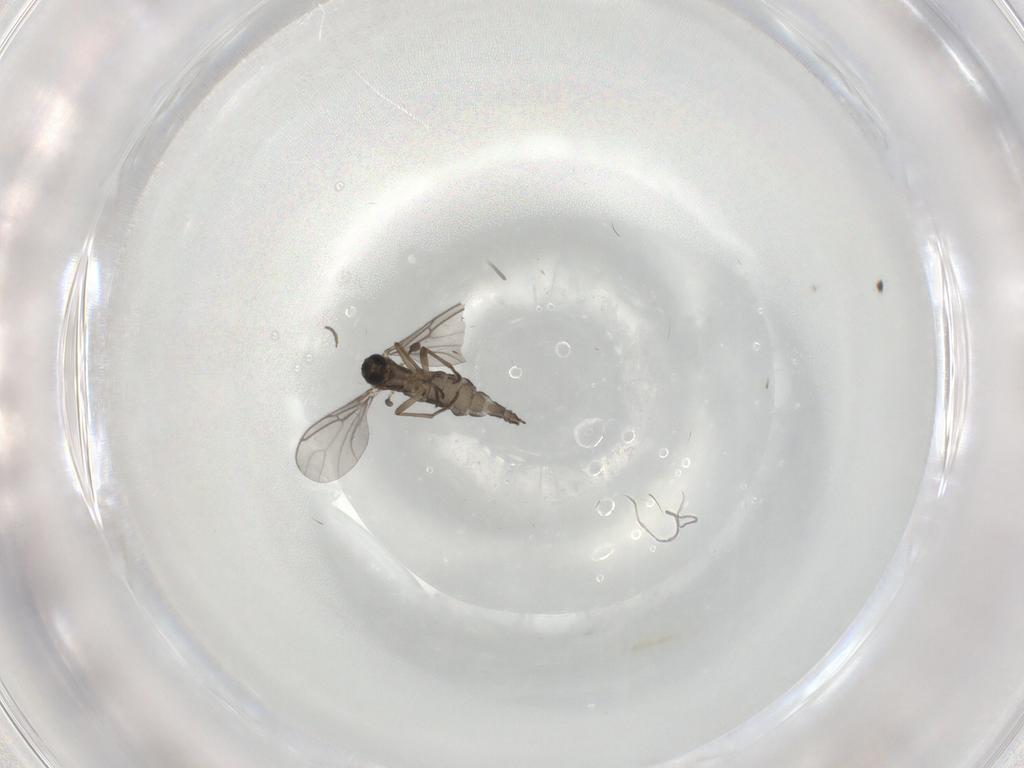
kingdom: Animalia
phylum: Arthropoda
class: Insecta
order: Diptera
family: Sciaridae
